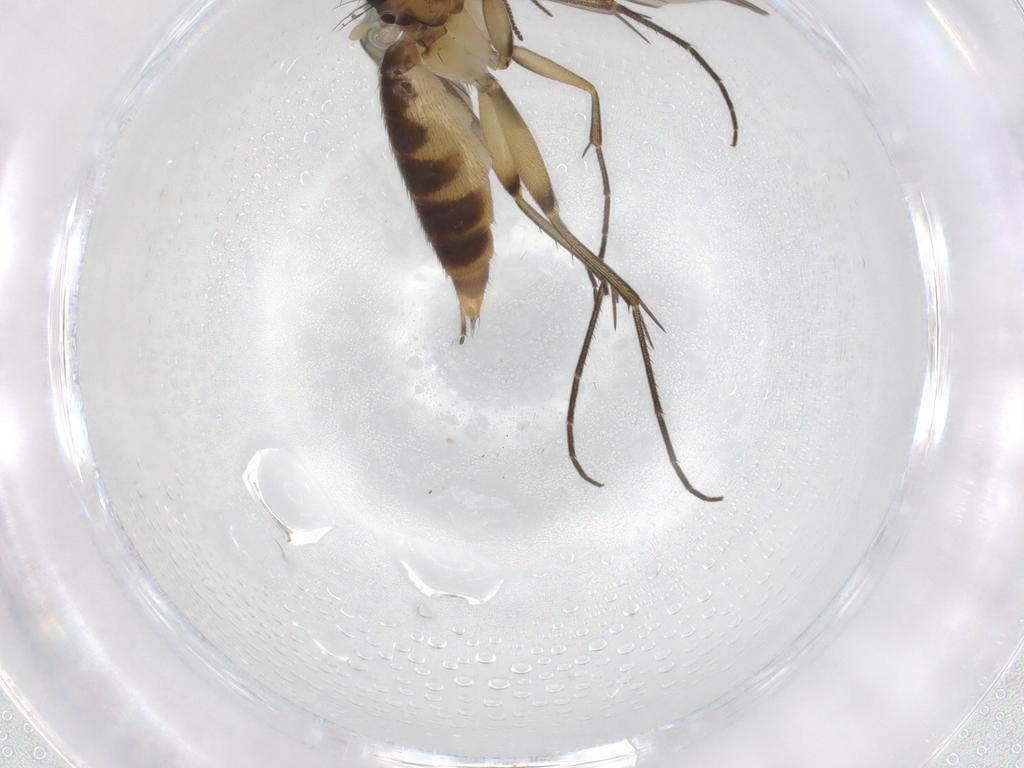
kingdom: Animalia
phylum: Arthropoda
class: Insecta
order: Diptera
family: Mycetophilidae
